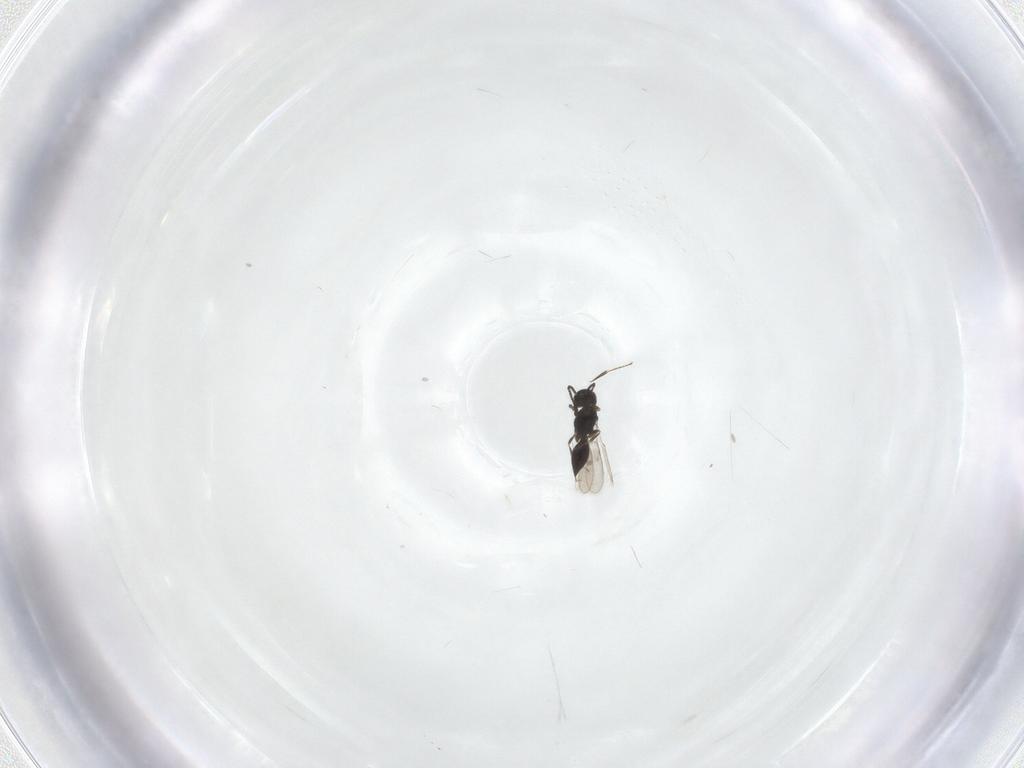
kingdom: Animalia
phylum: Arthropoda
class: Insecta
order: Hymenoptera
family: Scelionidae
